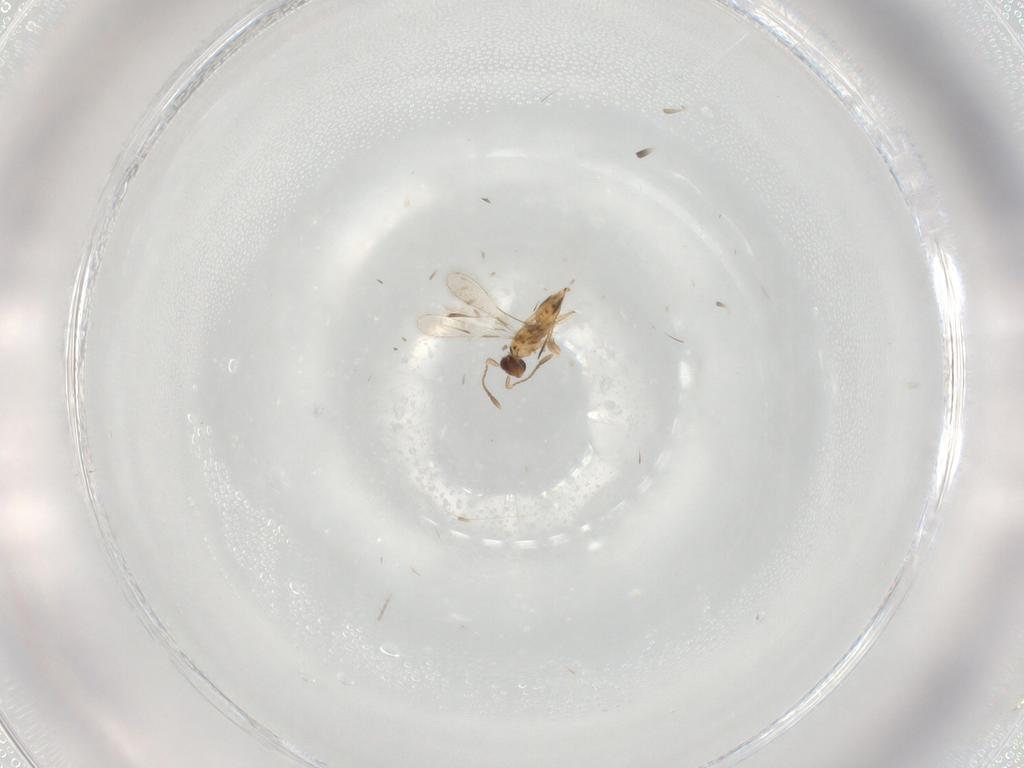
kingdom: Animalia
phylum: Arthropoda
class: Insecta
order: Hymenoptera
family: Mymaridae
